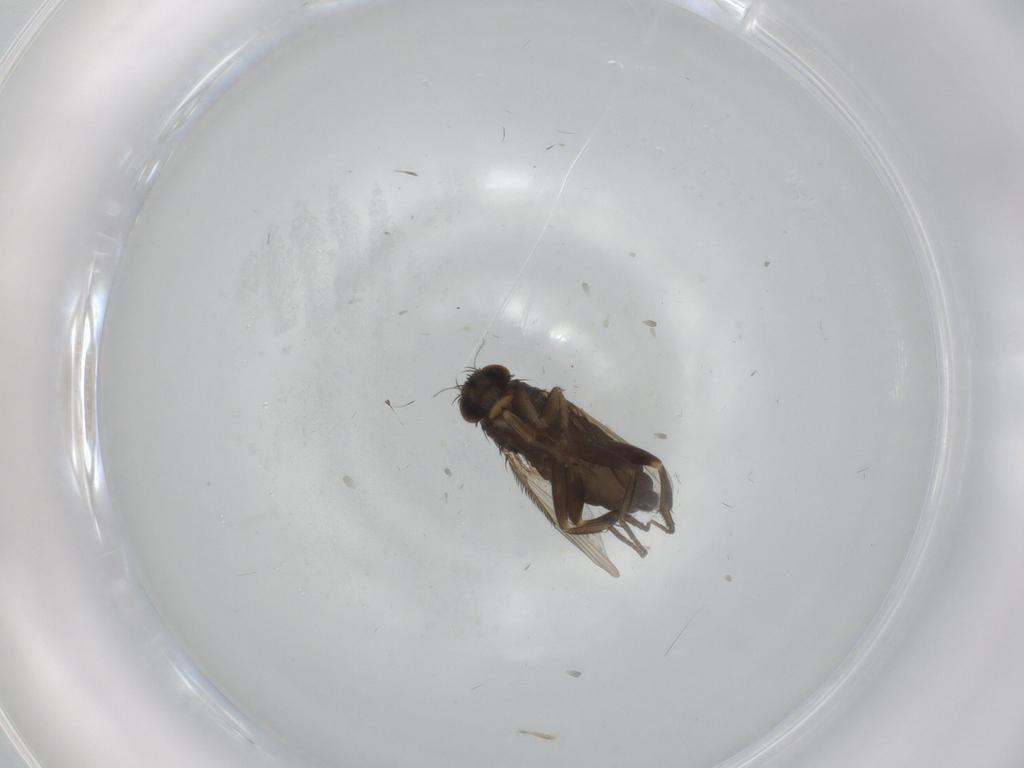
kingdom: Animalia
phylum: Arthropoda
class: Insecta
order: Diptera
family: Phoridae
